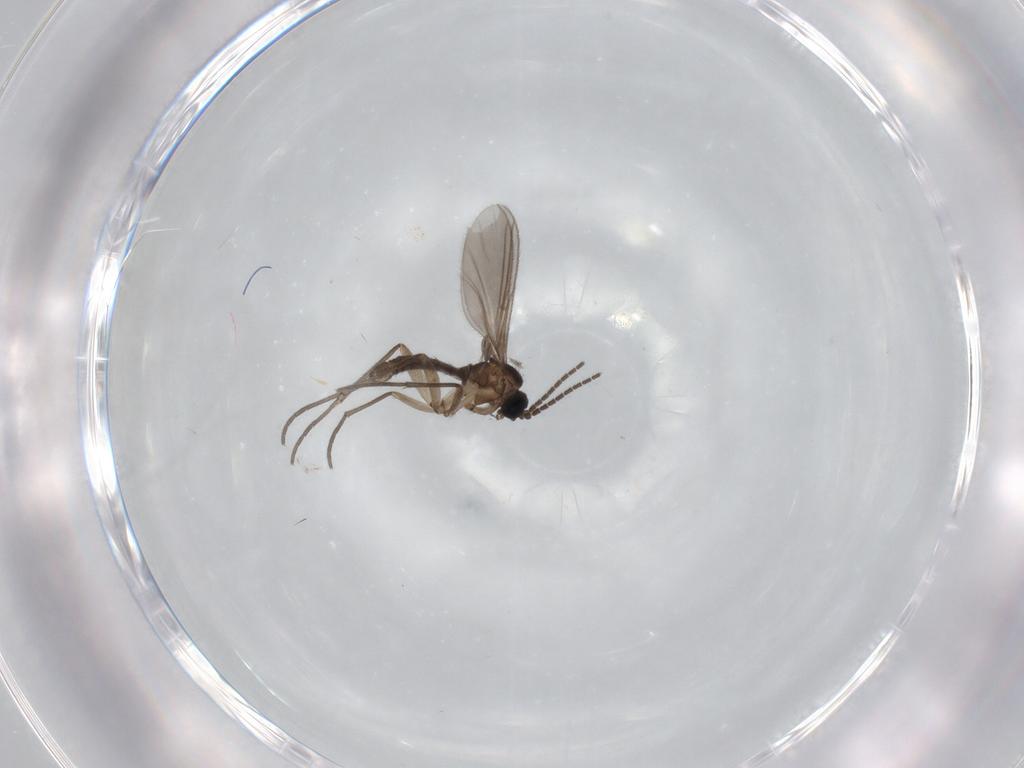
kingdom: Animalia
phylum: Arthropoda
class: Insecta
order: Diptera
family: Sciaridae
